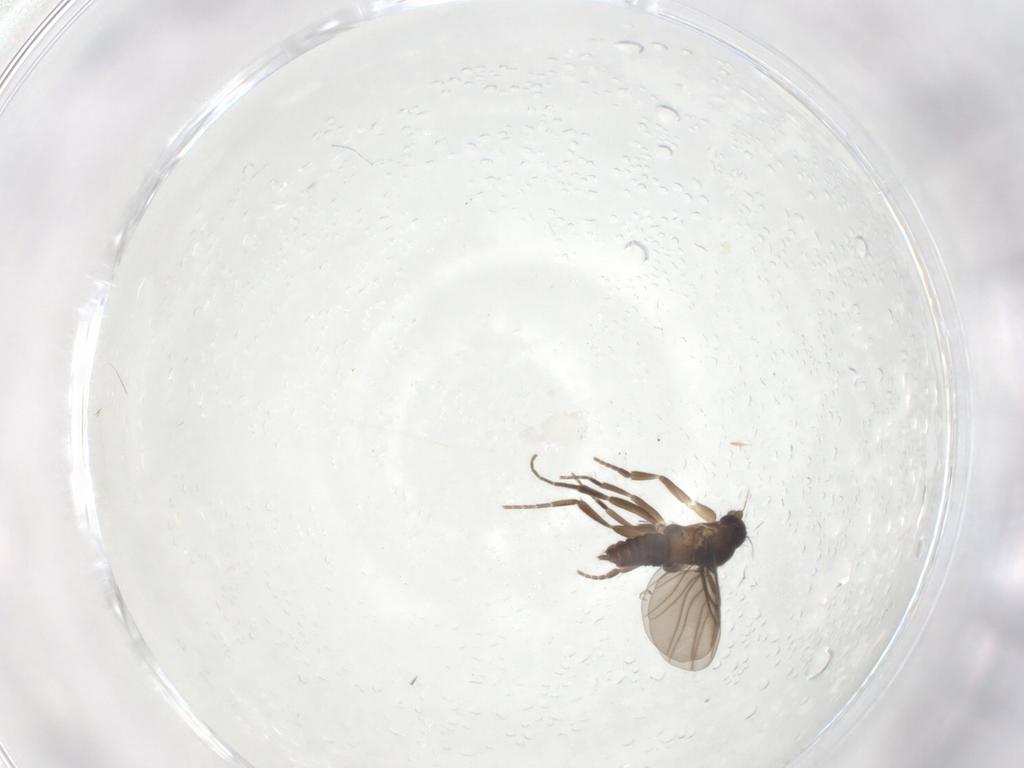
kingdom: Animalia
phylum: Arthropoda
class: Insecta
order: Diptera
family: Phoridae
